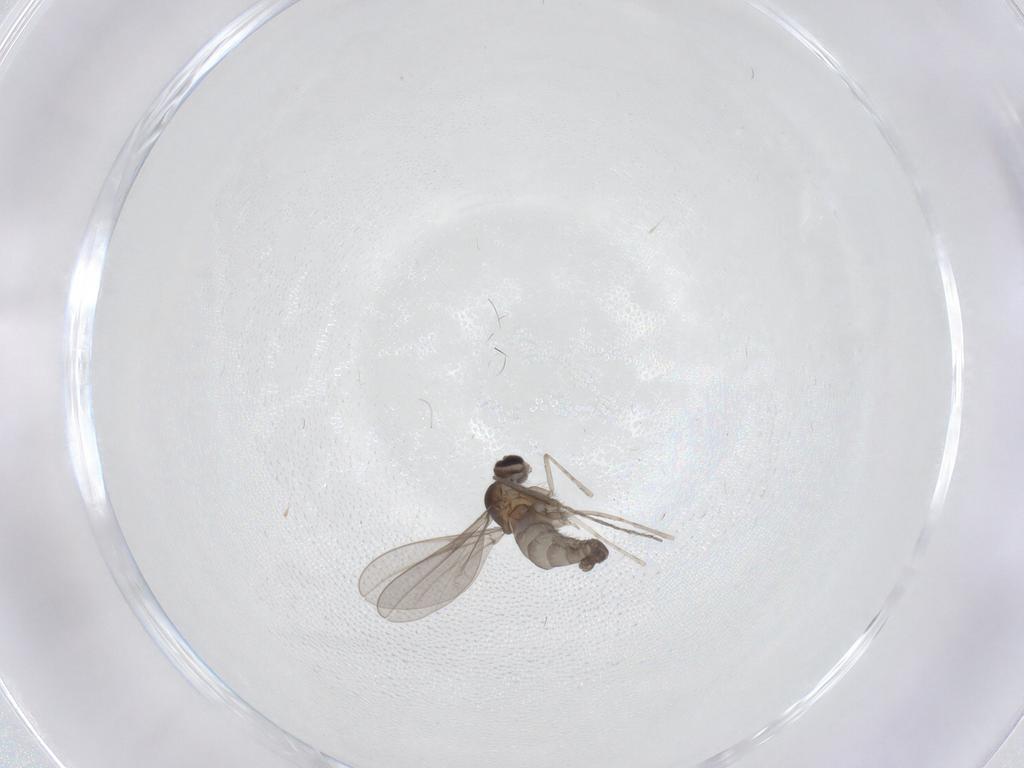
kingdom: Animalia
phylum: Arthropoda
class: Insecta
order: Diptera
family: Cecidomyiidae
